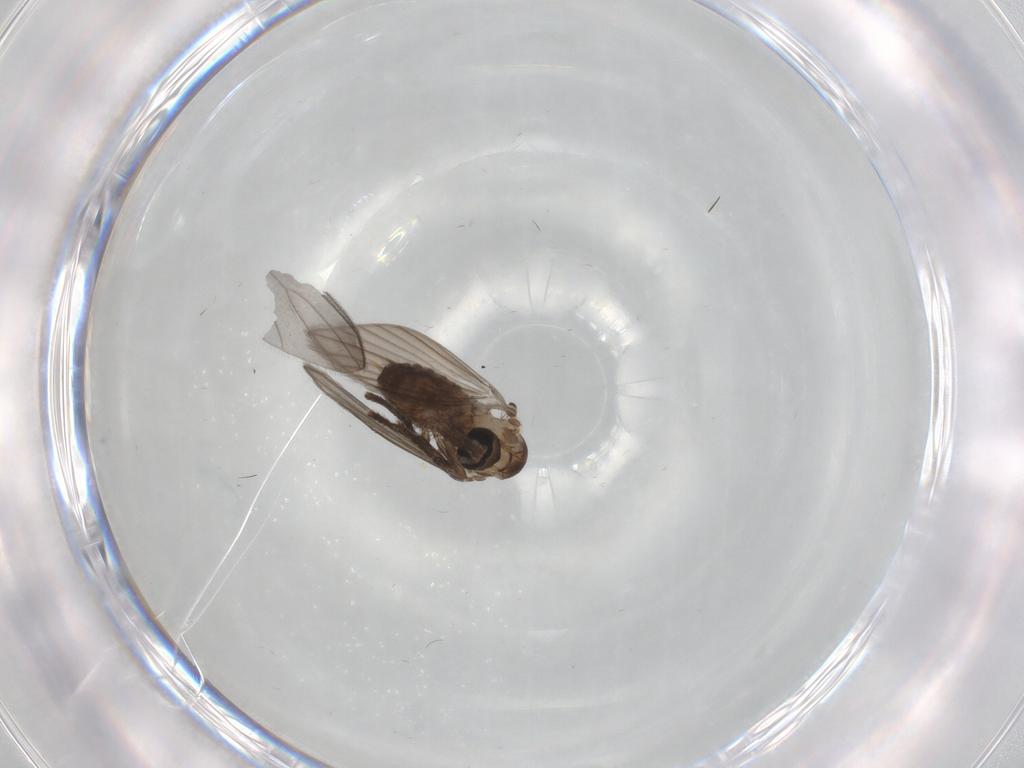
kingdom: Animalia
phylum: Arthropoda
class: Insecta
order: Diptera
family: Psychodidae
